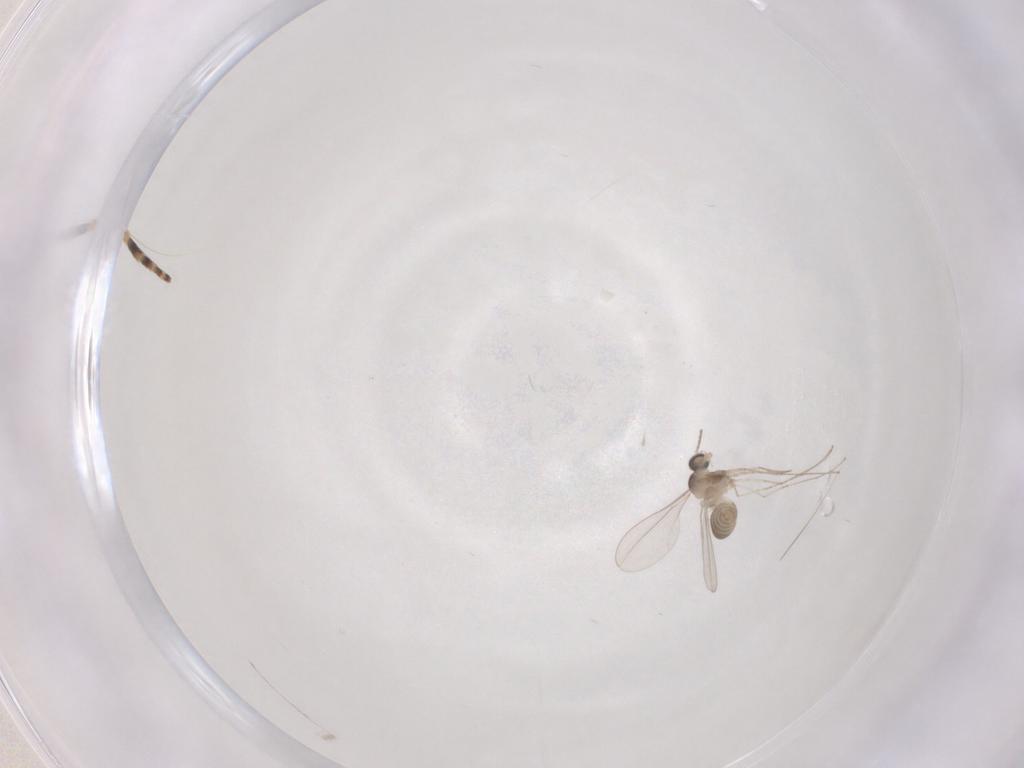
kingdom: Animalia
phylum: Arthropoda
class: Insecta
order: Diptera
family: Cecidomyiidae
